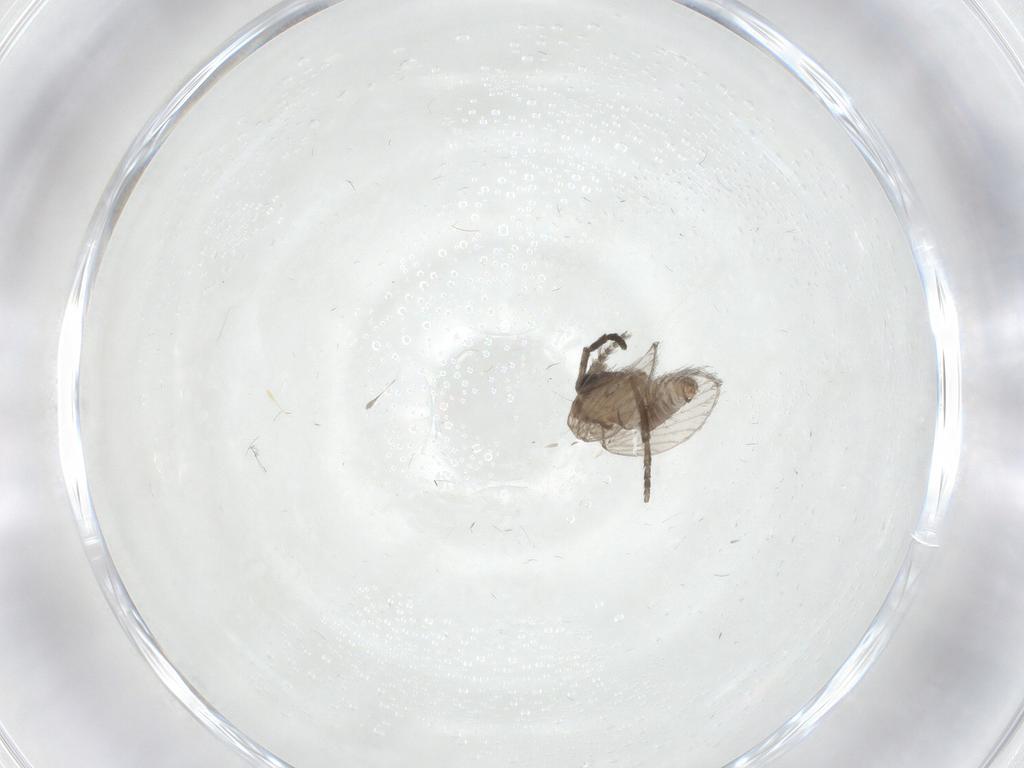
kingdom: Animalia
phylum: Arthropoda
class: Insecta
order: Diptera
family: Psychodidae
